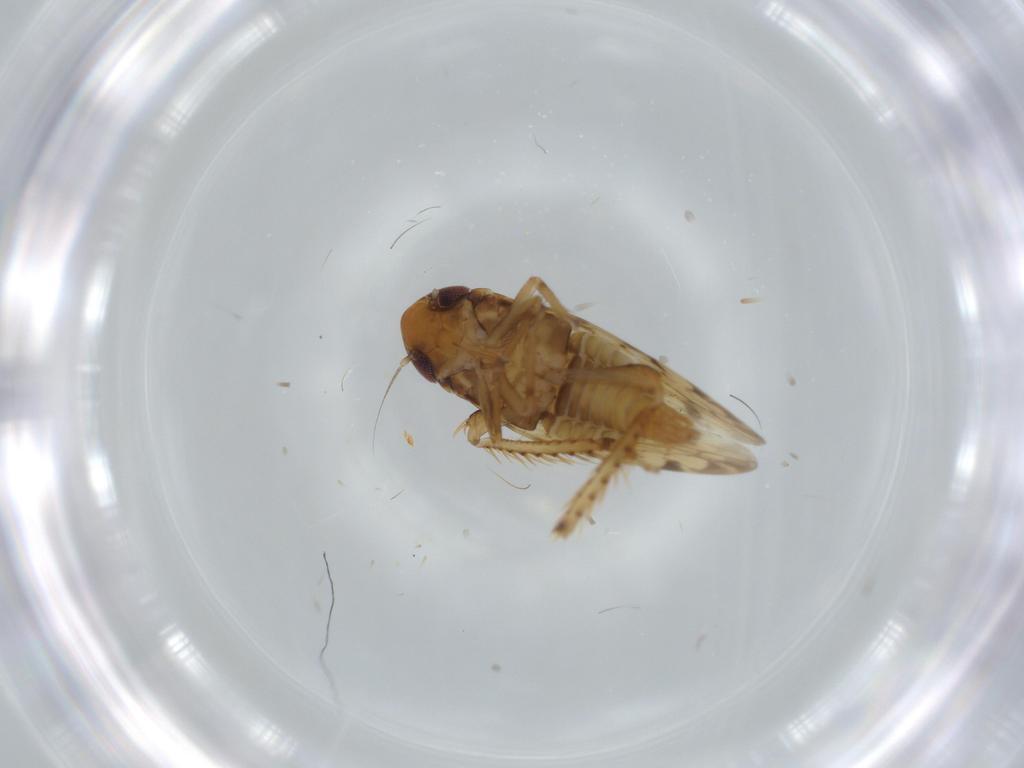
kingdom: Animalia
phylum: Arthropoda
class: Insecta
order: Hemiptera
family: Cicadellidae
